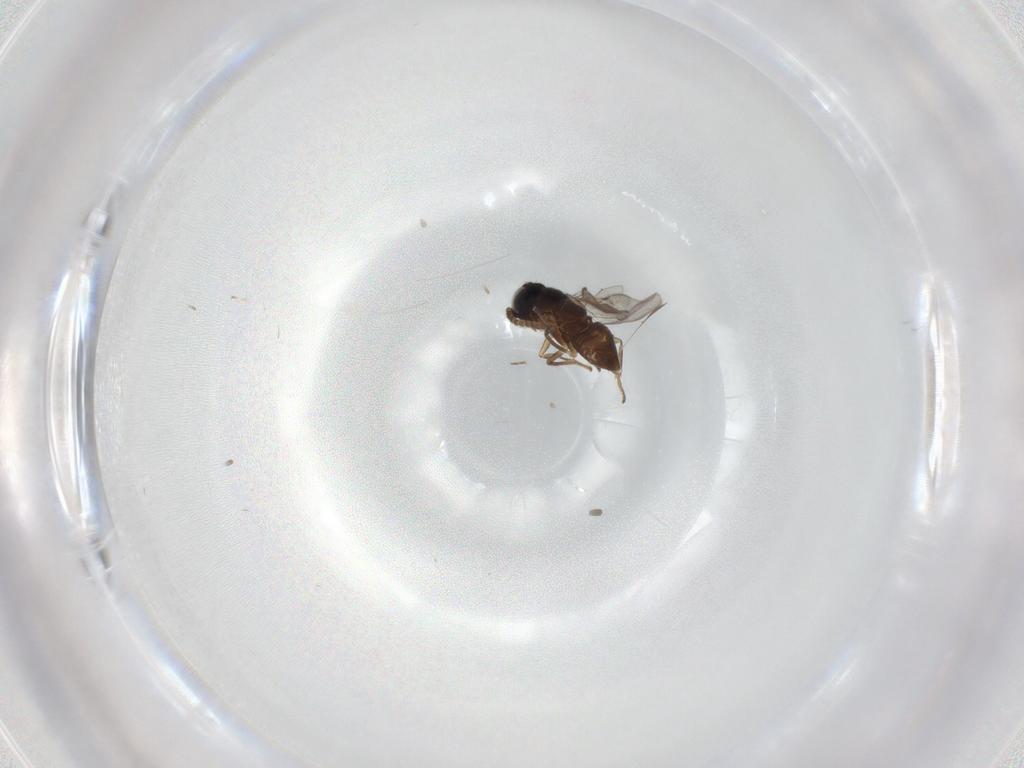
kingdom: Animalia
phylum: Arthropoda
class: Insecta
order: Diptera
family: Phoridae
